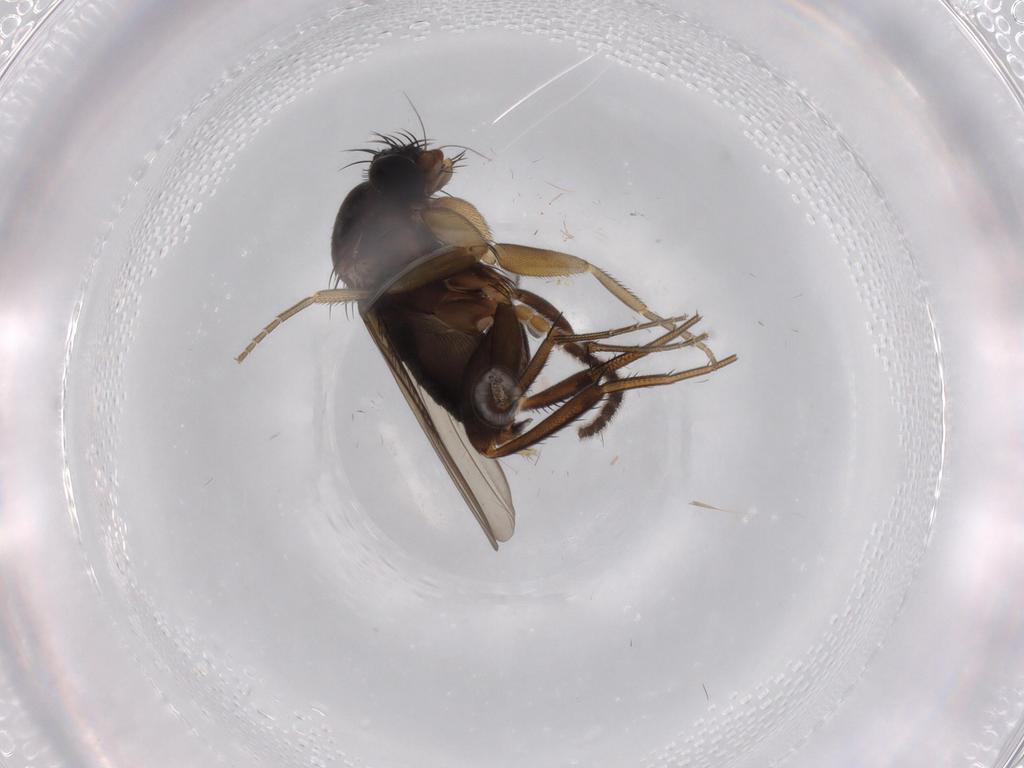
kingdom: Animalia
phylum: Arthropoda
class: Insecta
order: Diptera
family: Mycetophilidae
